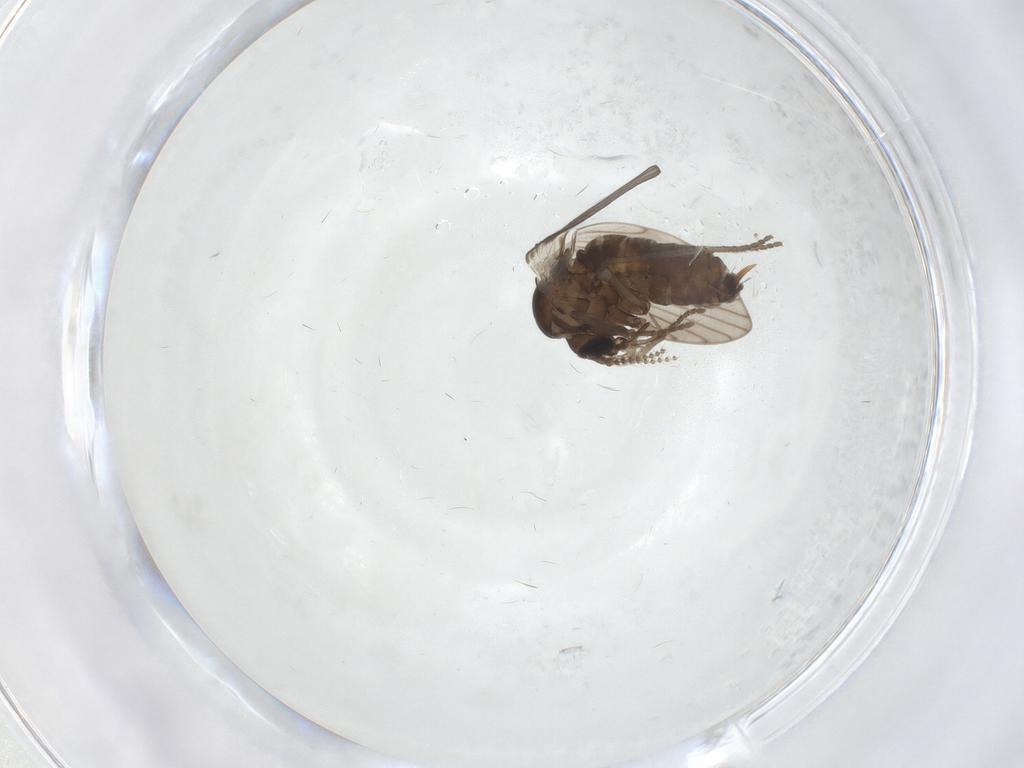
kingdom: Animalia
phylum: Arthropoda
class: Insecta
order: Diptera
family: Psychodidae
